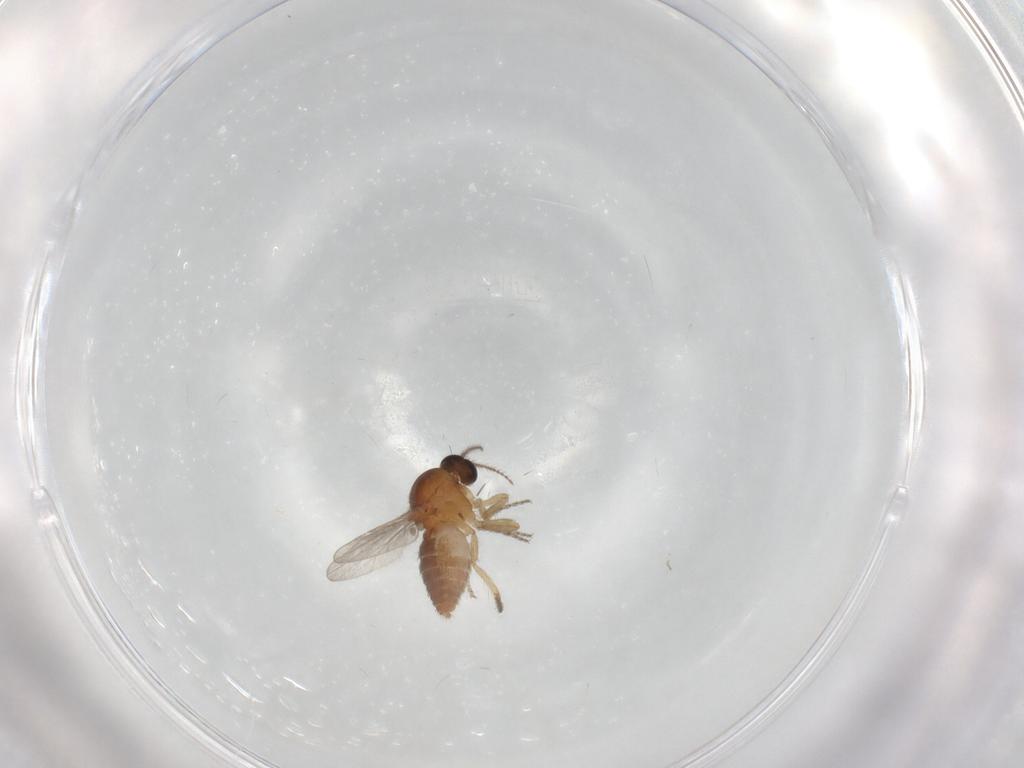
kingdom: Animalia
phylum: Arthropoda
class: Insecta
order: Diptera
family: Ceratopogonidae
